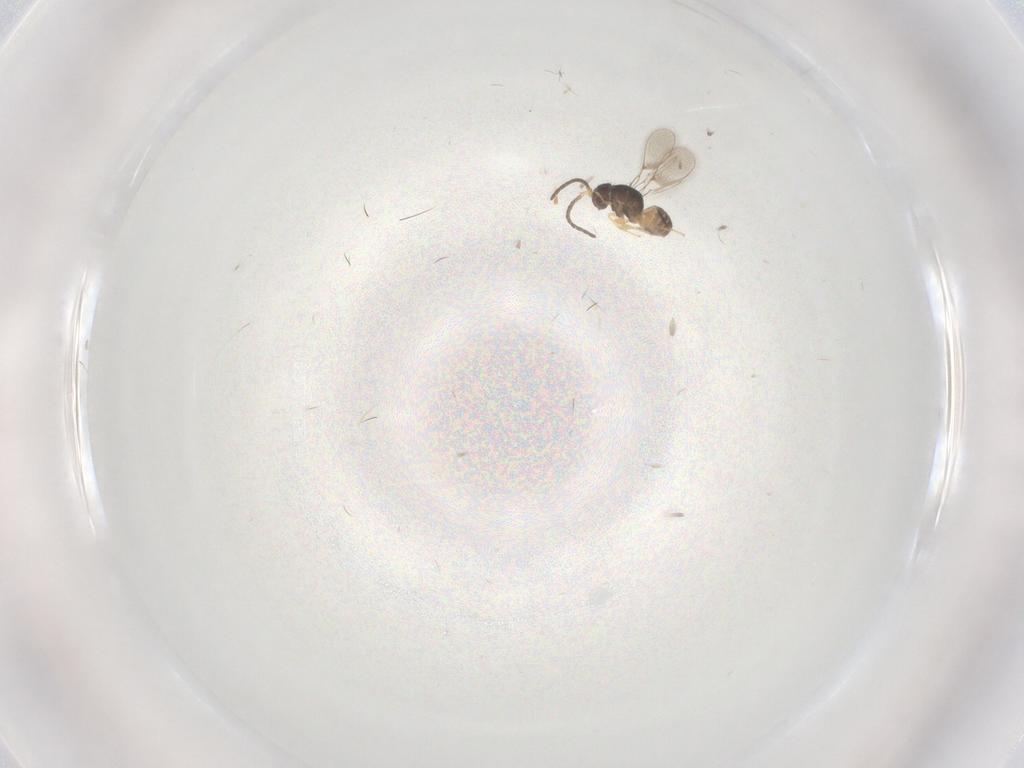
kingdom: Animalia
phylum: Arthropoda
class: Insecta
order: Hymenoptera
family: Mymaridae
